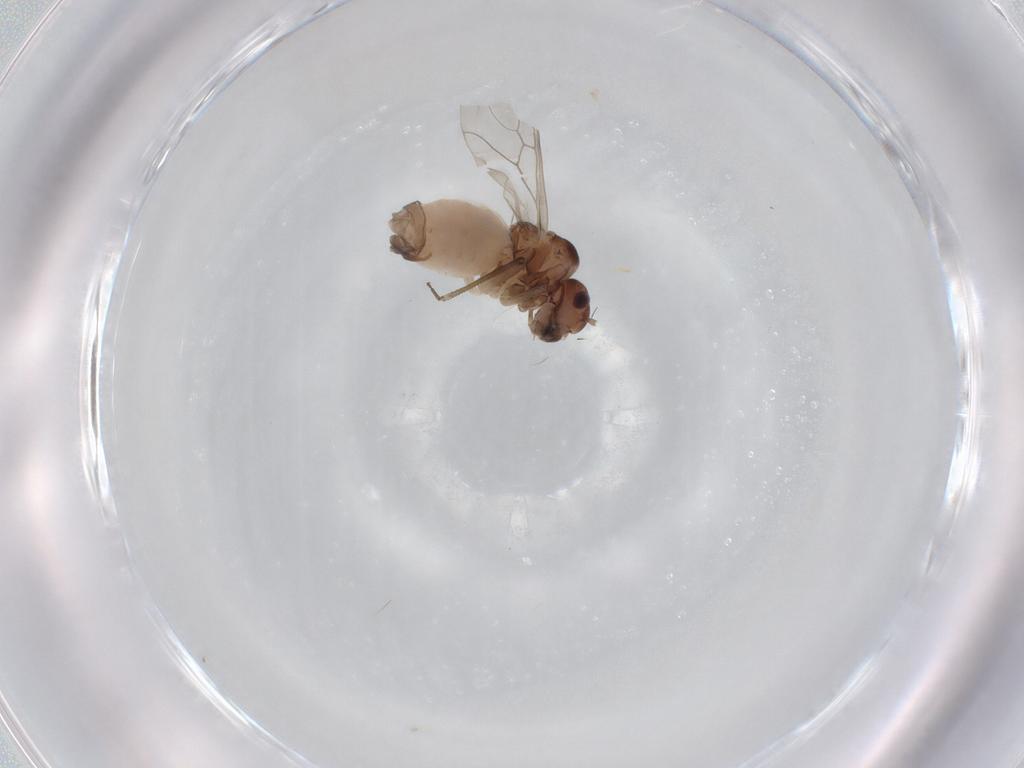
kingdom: Animalia
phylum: Arthropoda
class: Insecta
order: Psocodea
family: Peripsocidae
